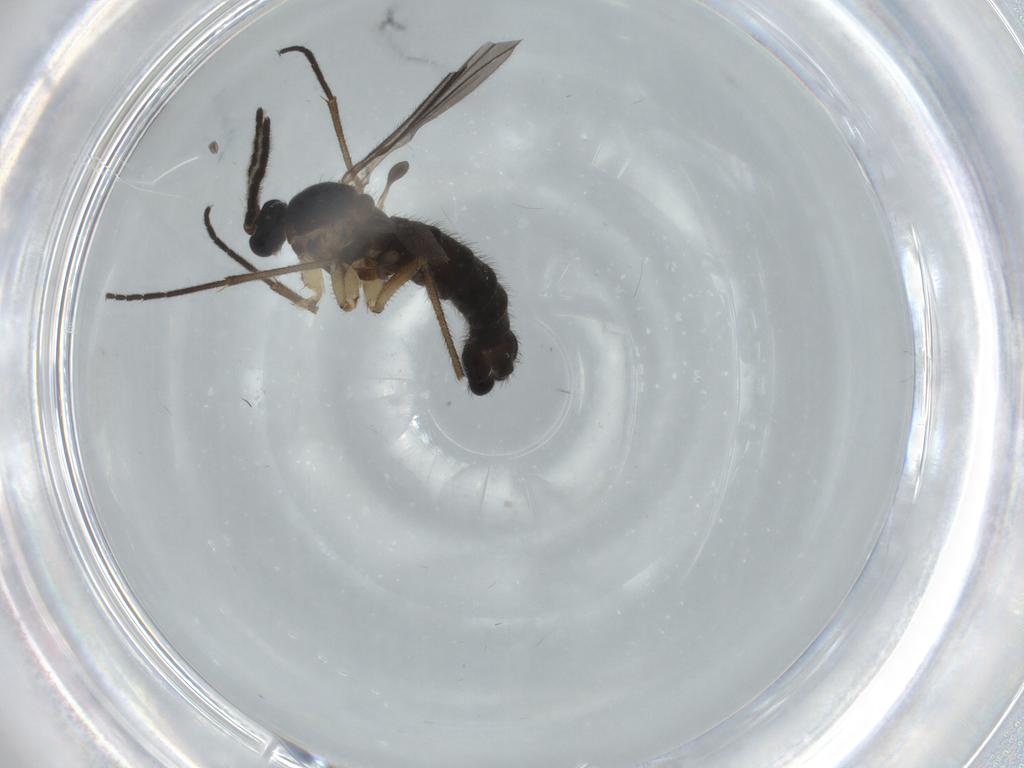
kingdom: Animalia
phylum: Arthropoda
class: Insecta
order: Diptera
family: Sciaridae
